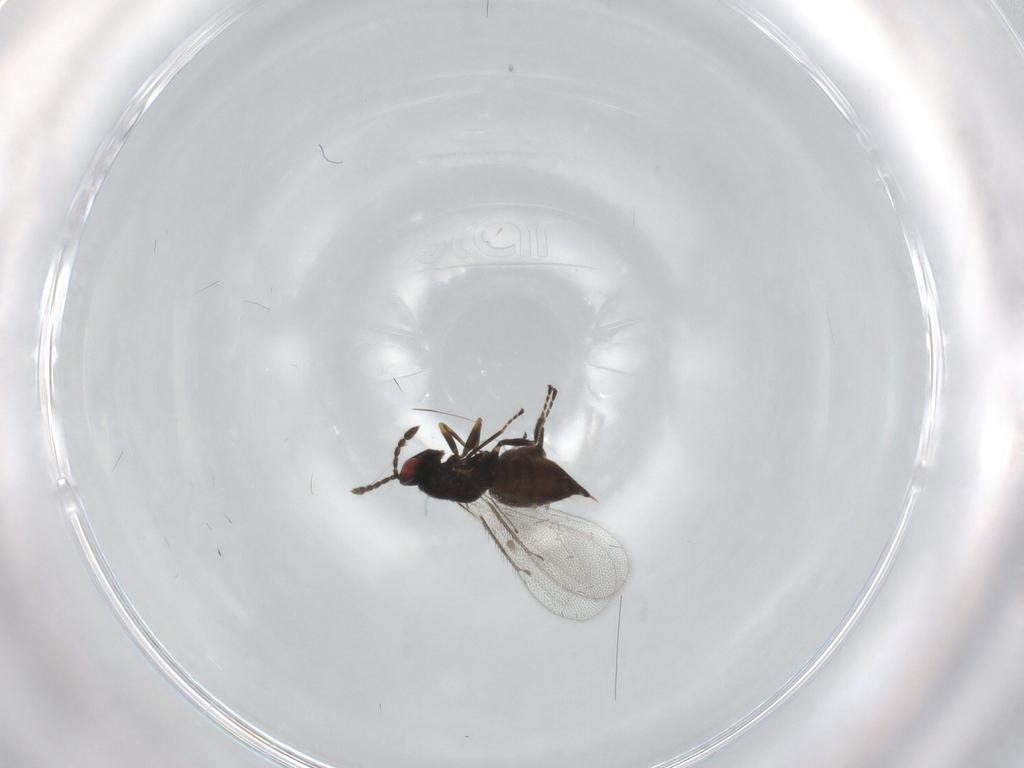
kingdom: Animalia
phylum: Arthropoda
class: Insecta
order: Hymenoptera
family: Eulophidae
